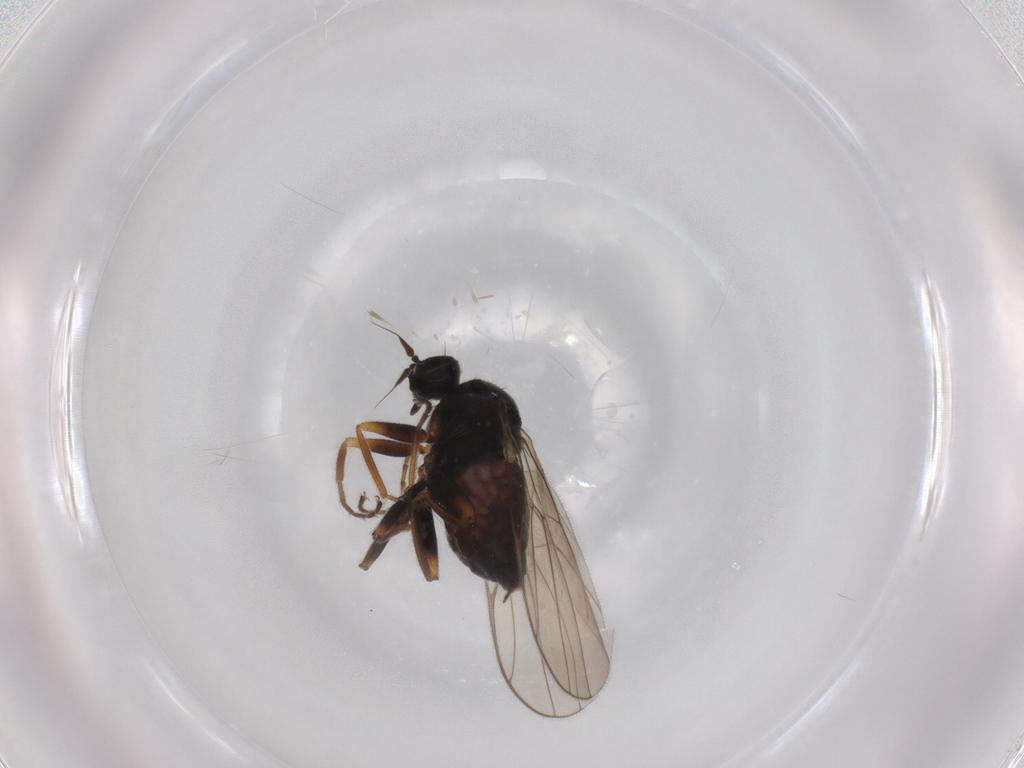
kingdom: Animalia
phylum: Arthropoda
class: Insecta
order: Diptera
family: Hybotidae
